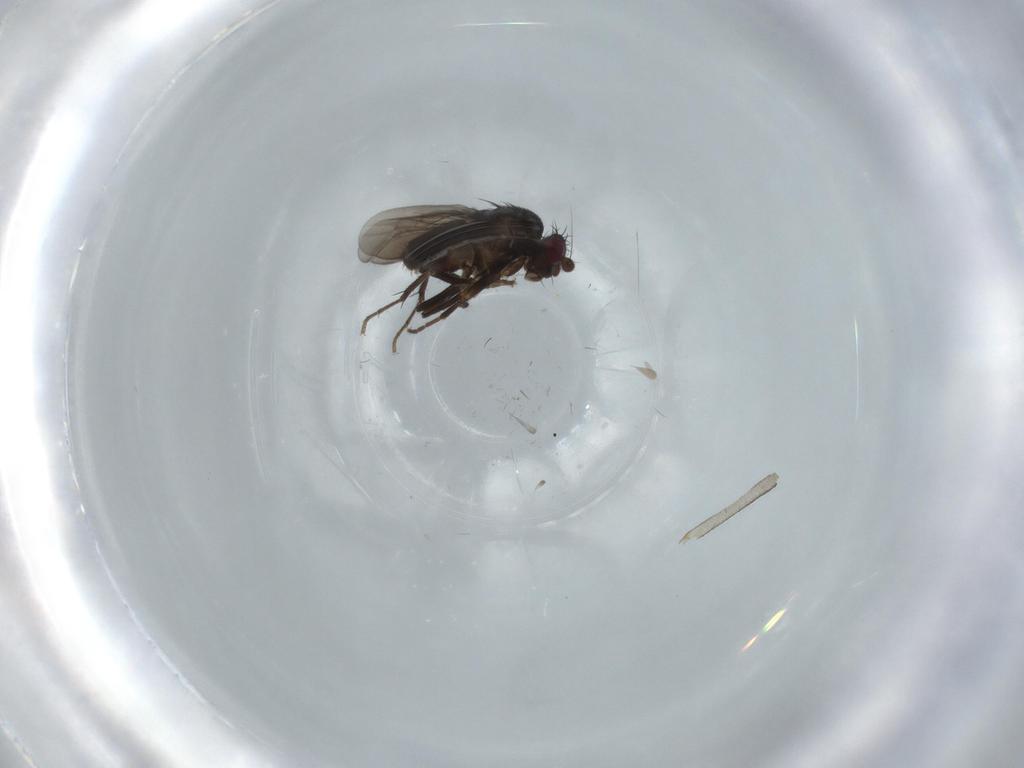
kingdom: Animalia
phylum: Arthropoda
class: Insecta
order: Diptera
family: Sphaeroceridae
